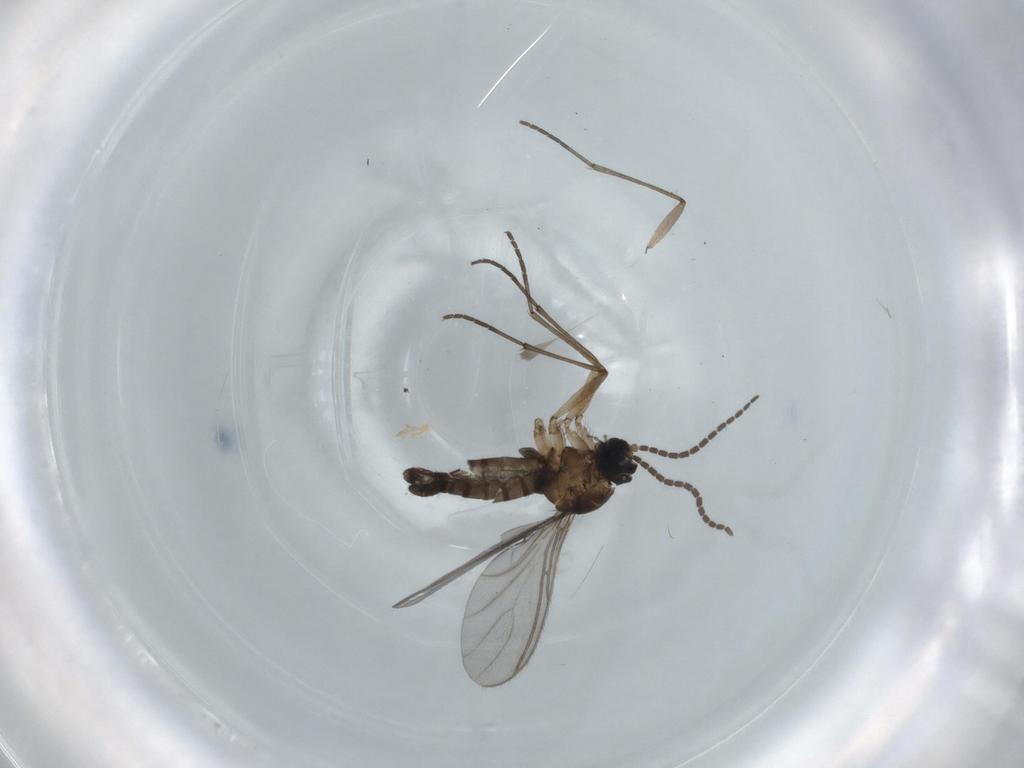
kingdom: Animalia
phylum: Arthropoda
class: Insecta
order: Diptera
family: Sciaridae
